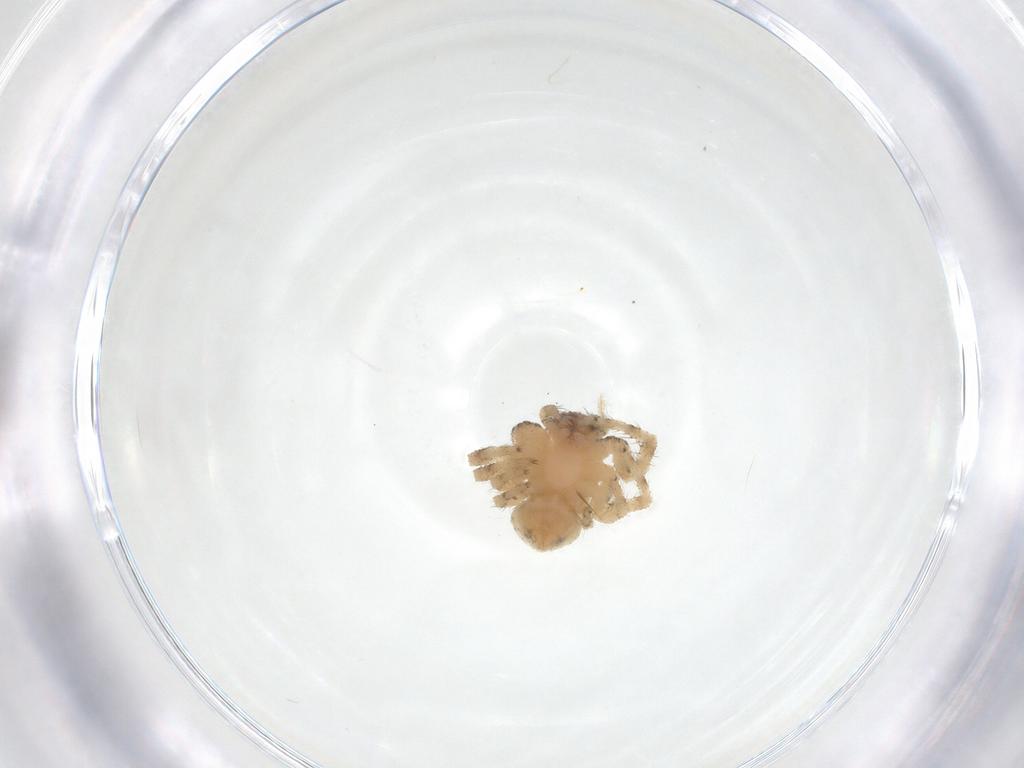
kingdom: Animalia
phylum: Arthropoda
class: Arachnida
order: Araneae
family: Thomisidae
